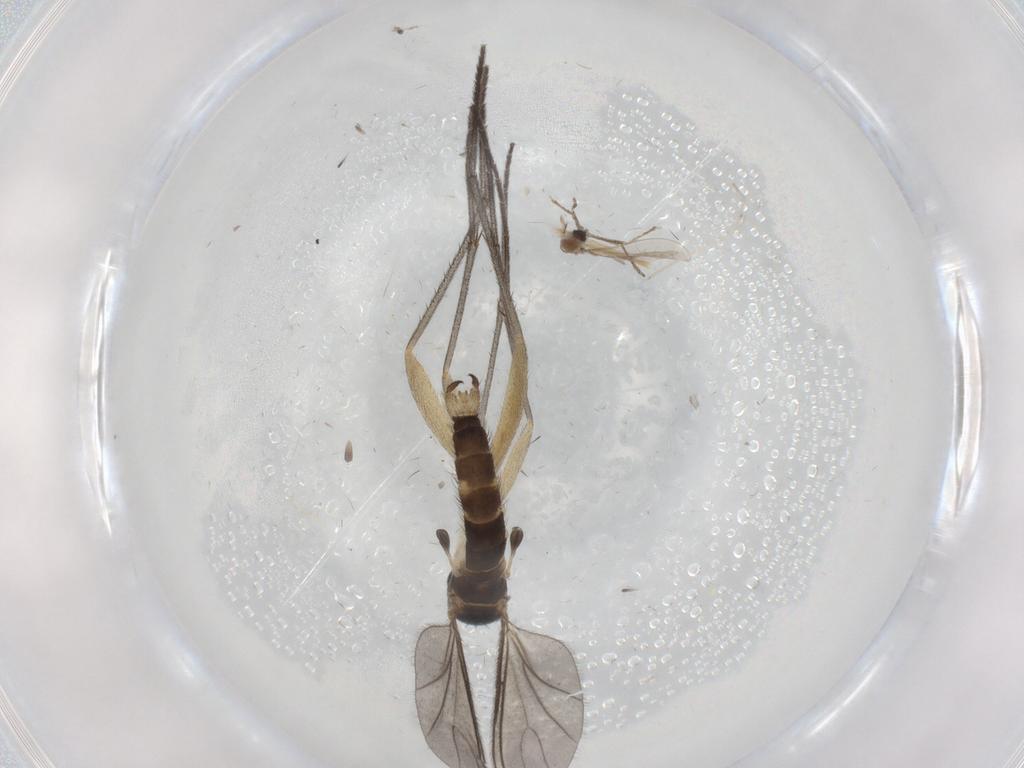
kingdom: Animalia
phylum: Arthropoda
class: Insecta
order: Diptera
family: Sciaridae
